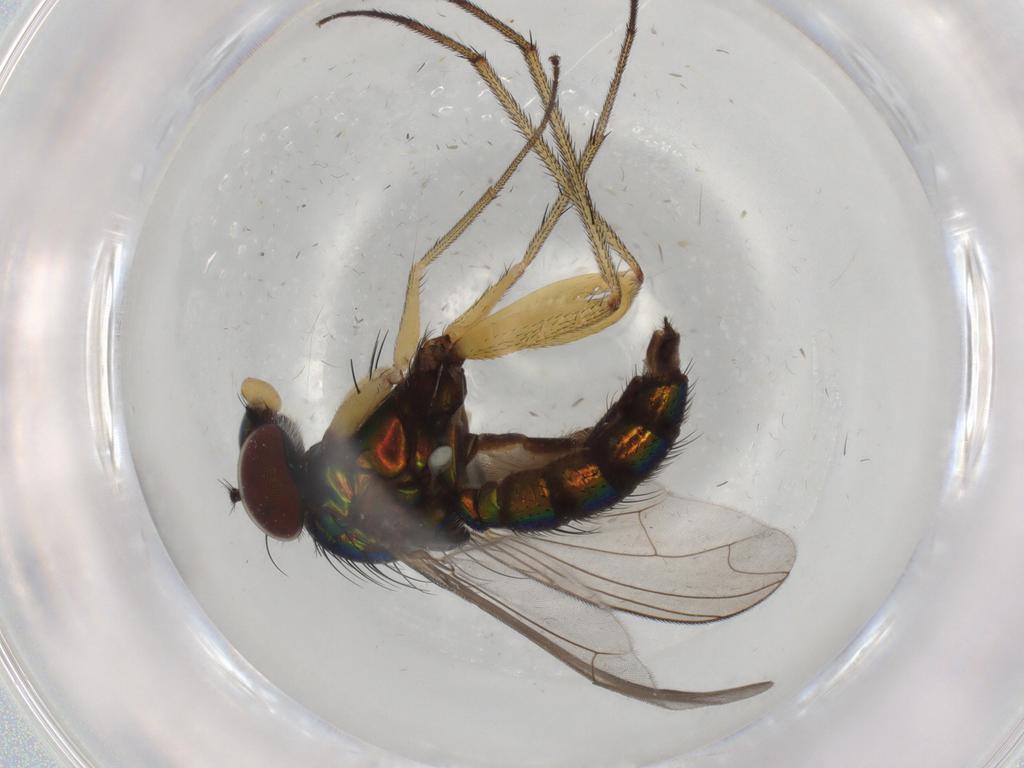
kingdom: Animalia
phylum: Arthropoda
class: Insecta
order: Diptera
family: Dolichopodidae
